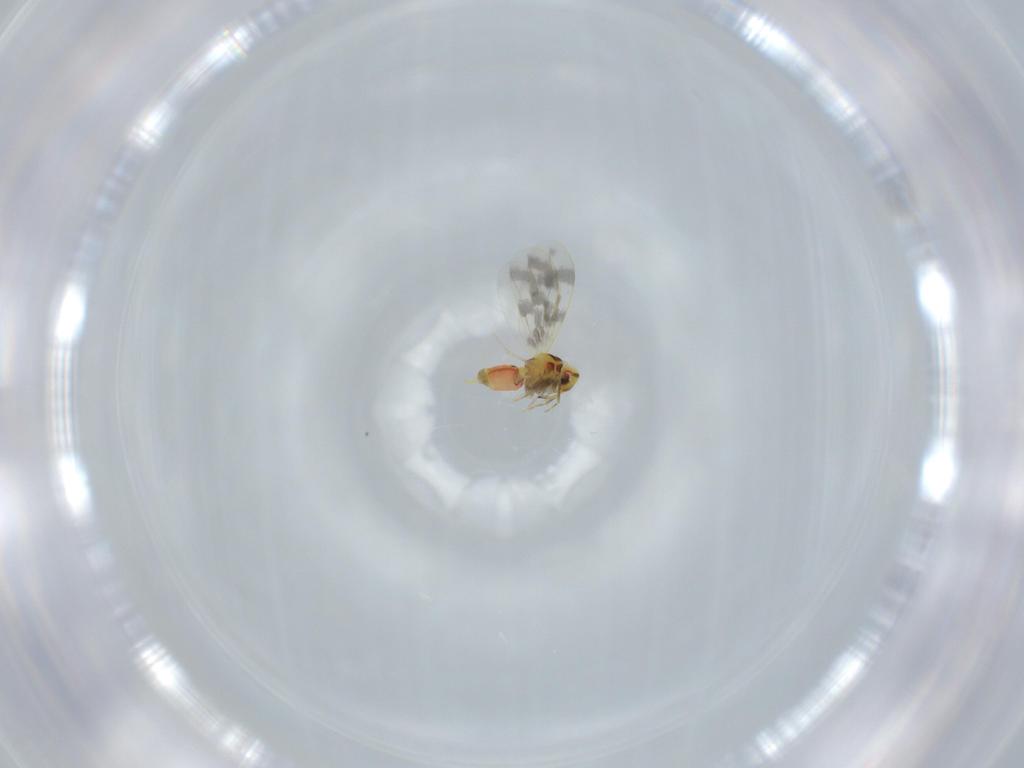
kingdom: Animalia
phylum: Arthropoda
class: Insecta
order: Hemiptera
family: Aleyrodidae
